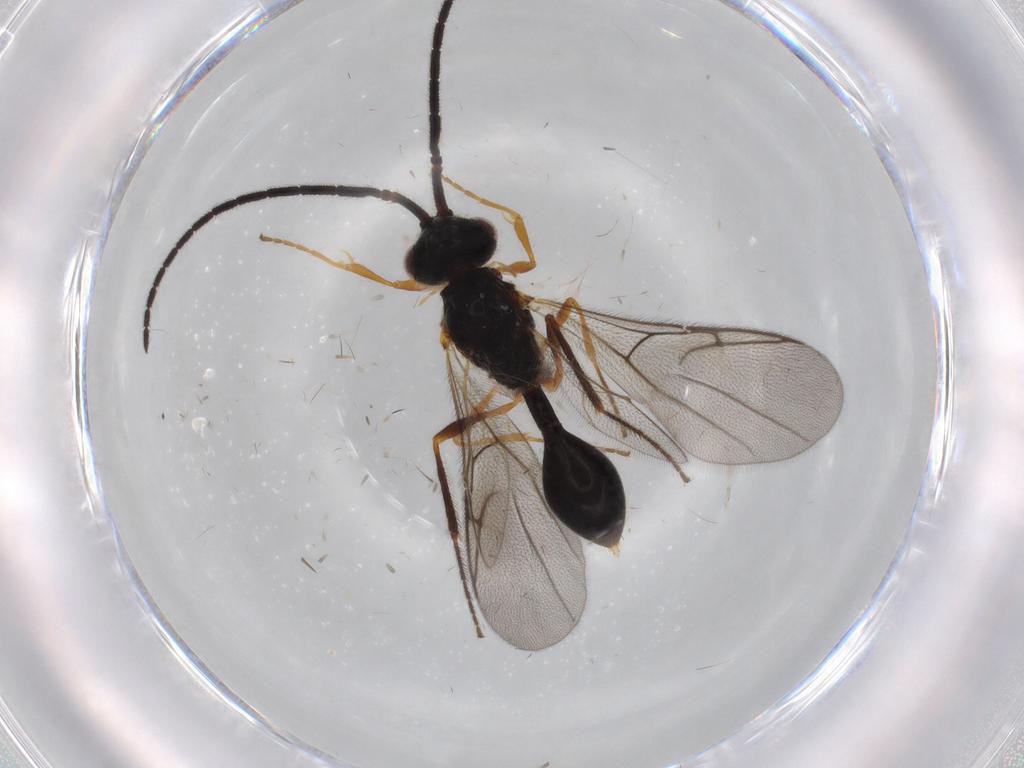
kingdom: Animalia
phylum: Arthropoda
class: Insecta
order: Hymenoptera
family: Diapriidae
